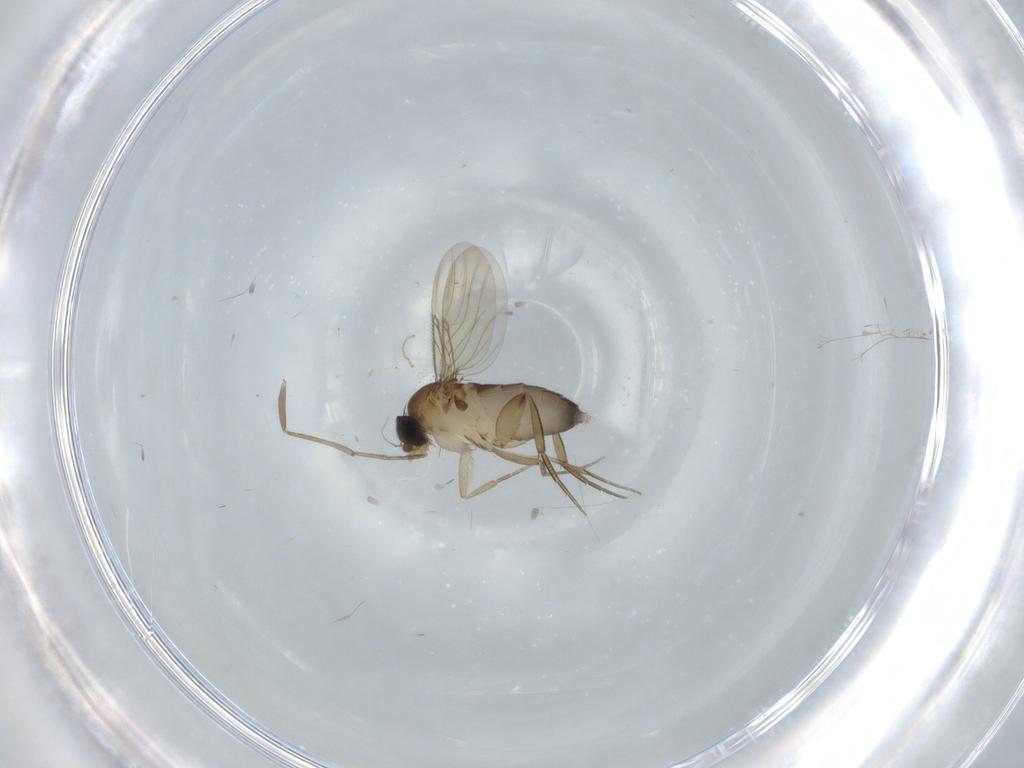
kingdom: Animalia
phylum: Arthropoda
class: Insecta
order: Diptera
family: Phoridae
